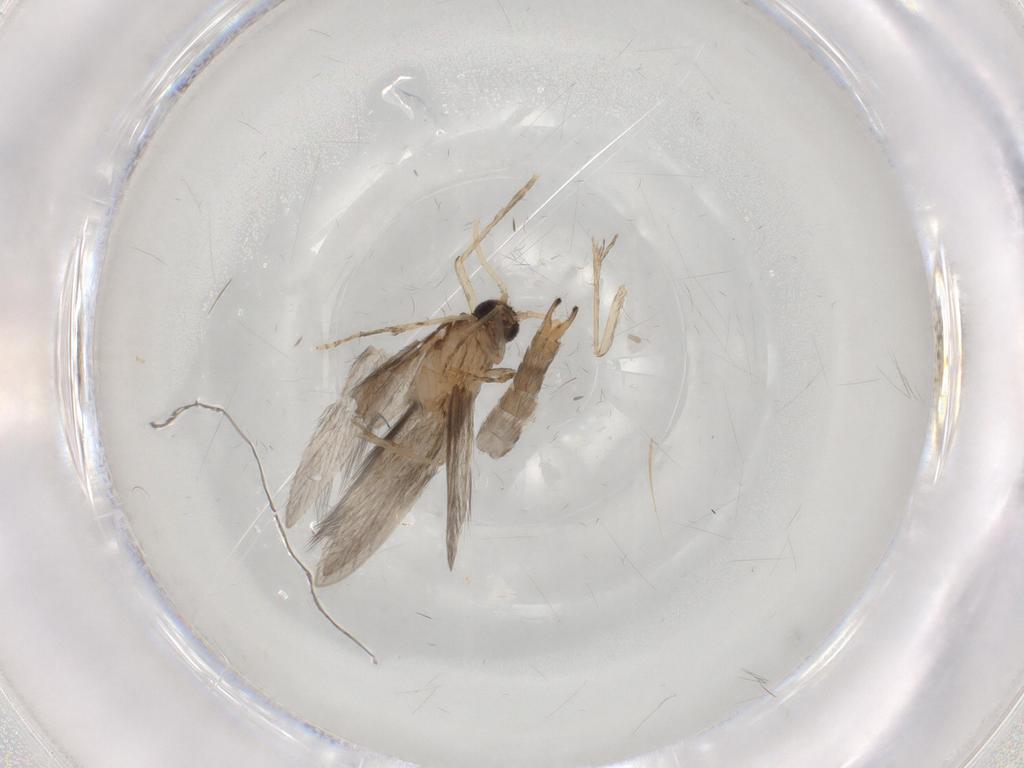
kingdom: Animalia
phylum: Arthropoda
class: Insecta
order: Trichoptera
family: Hydroptilidae
